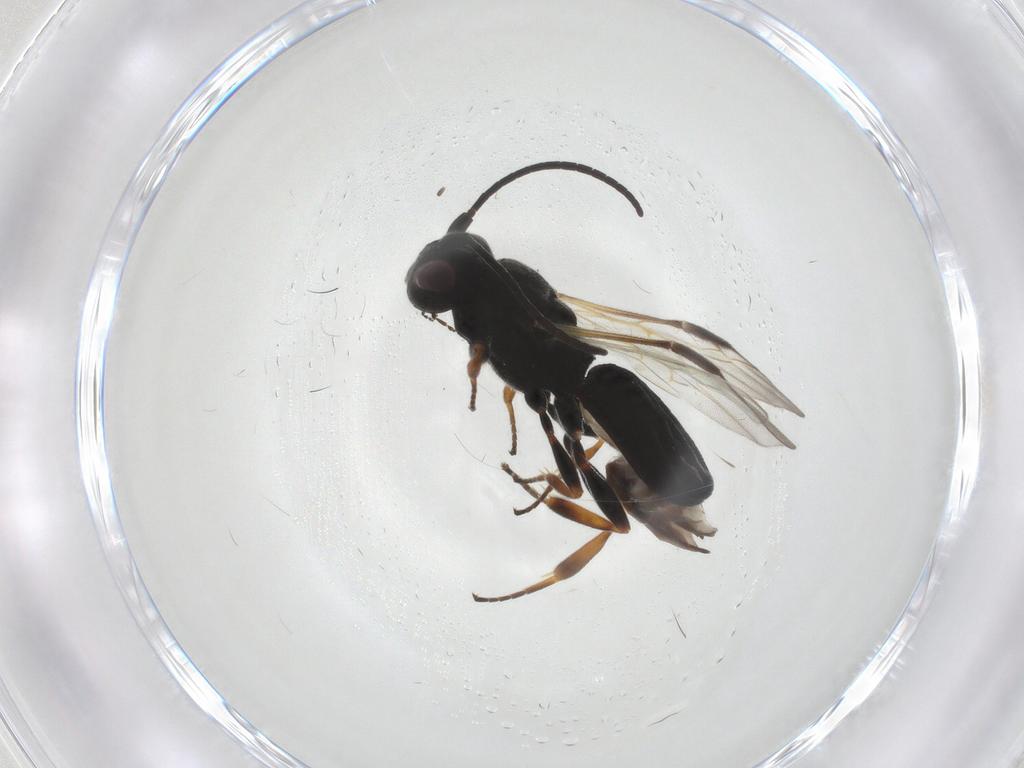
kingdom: Animalia
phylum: Arthropoda
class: Insecta
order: Hymenoptera
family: Braconidae
